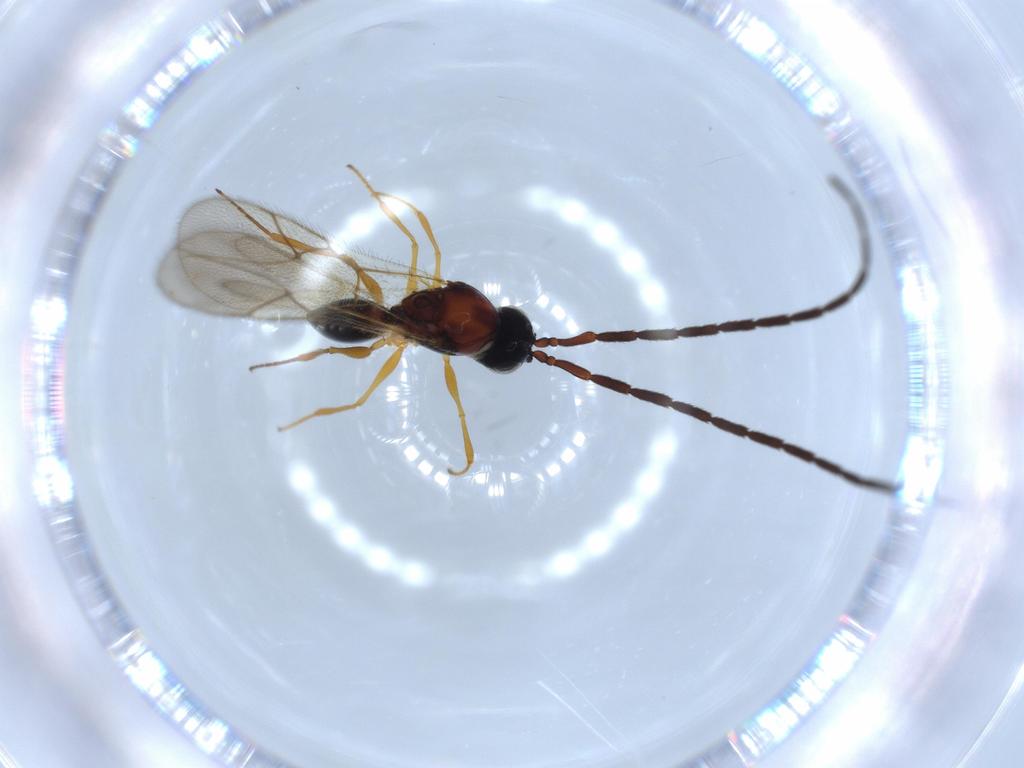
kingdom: Animalia
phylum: Arthropoda
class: Insecta
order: Hymenoptera
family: Figitidae
